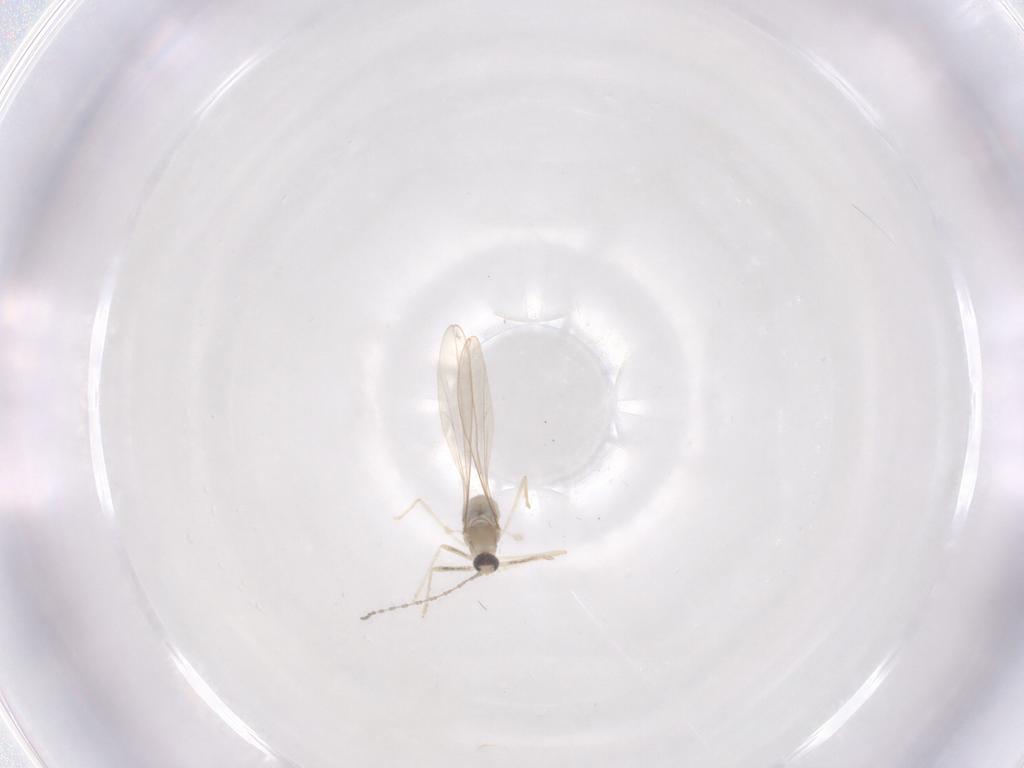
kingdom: Animalia
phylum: Arthropoda
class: Insecta
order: Diptera
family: Cecidomyiidae
